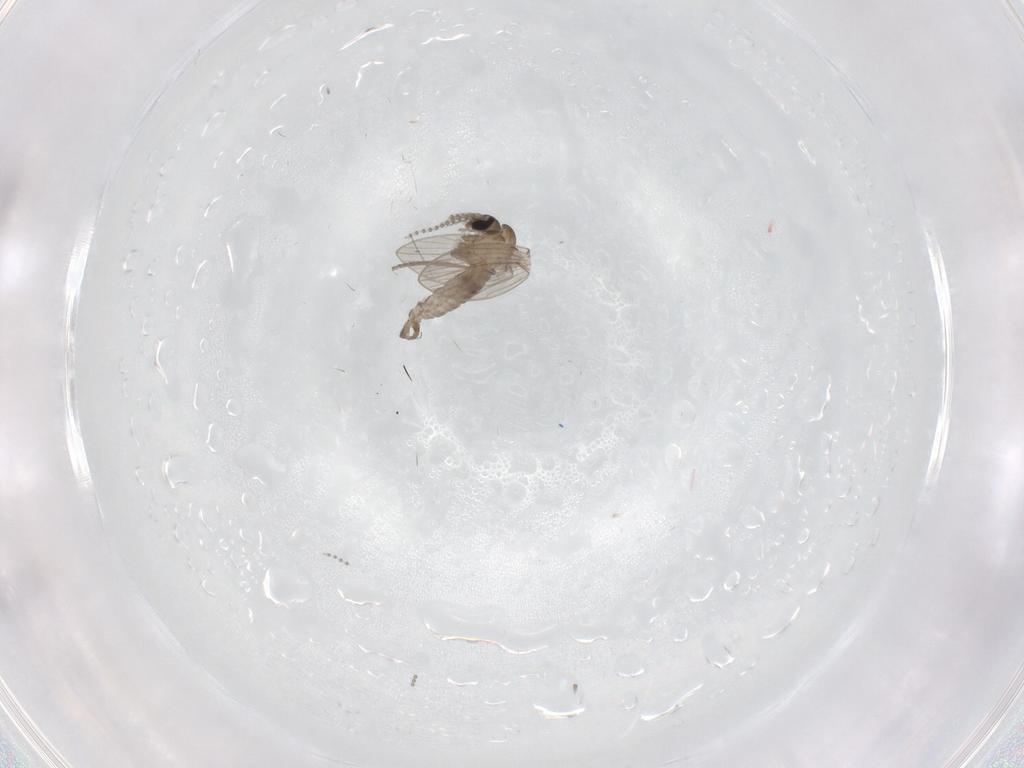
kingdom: Animalia
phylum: Arthropoda
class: Insecta
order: Diptera
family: Psychodidae
